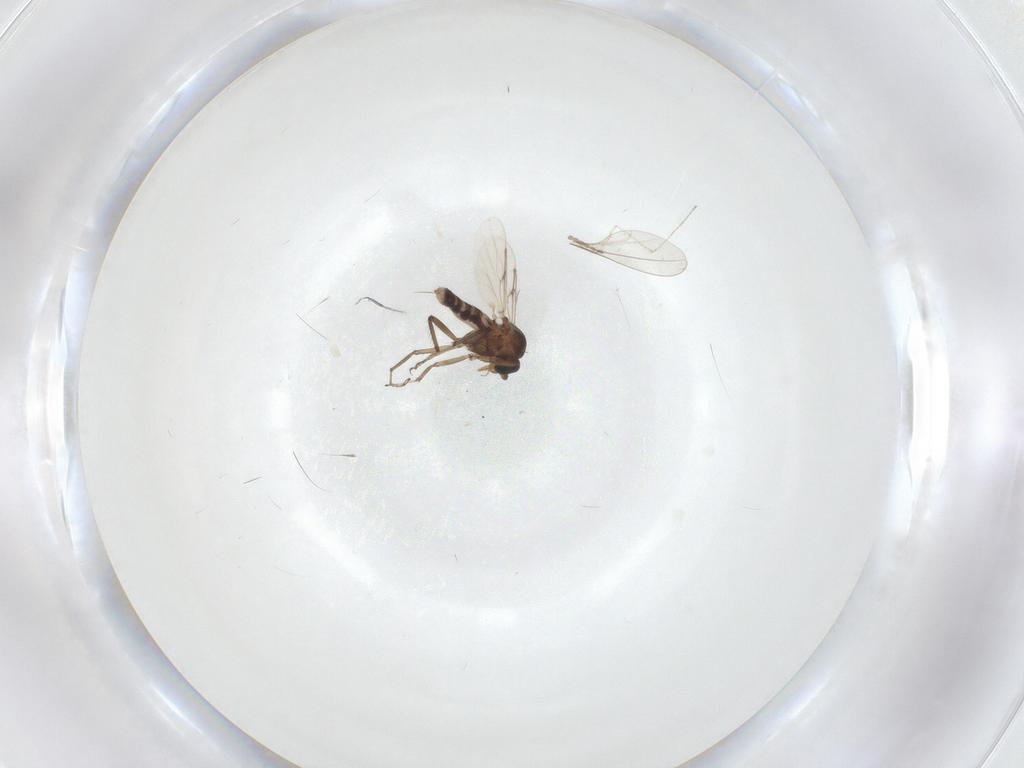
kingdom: Animalia
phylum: Arthropoda
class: Insecta
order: Diptera
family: Ceratopogonidae
